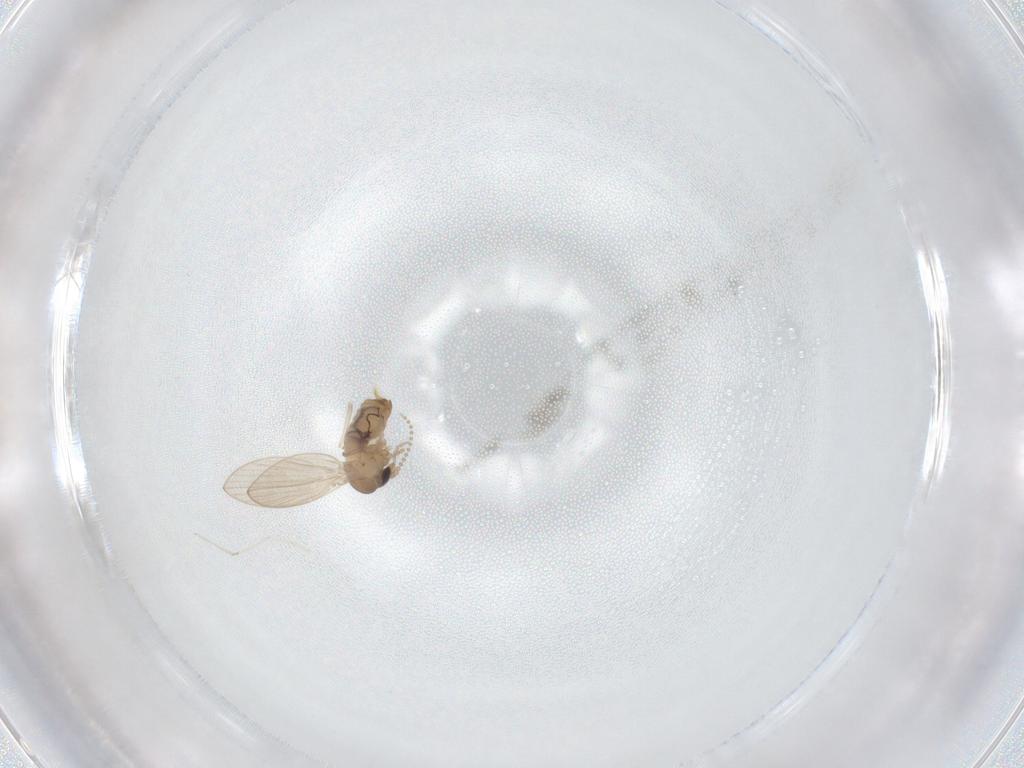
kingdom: Animalia
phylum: Arthropoda
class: Insecta
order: Diptera
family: Psychodidae
